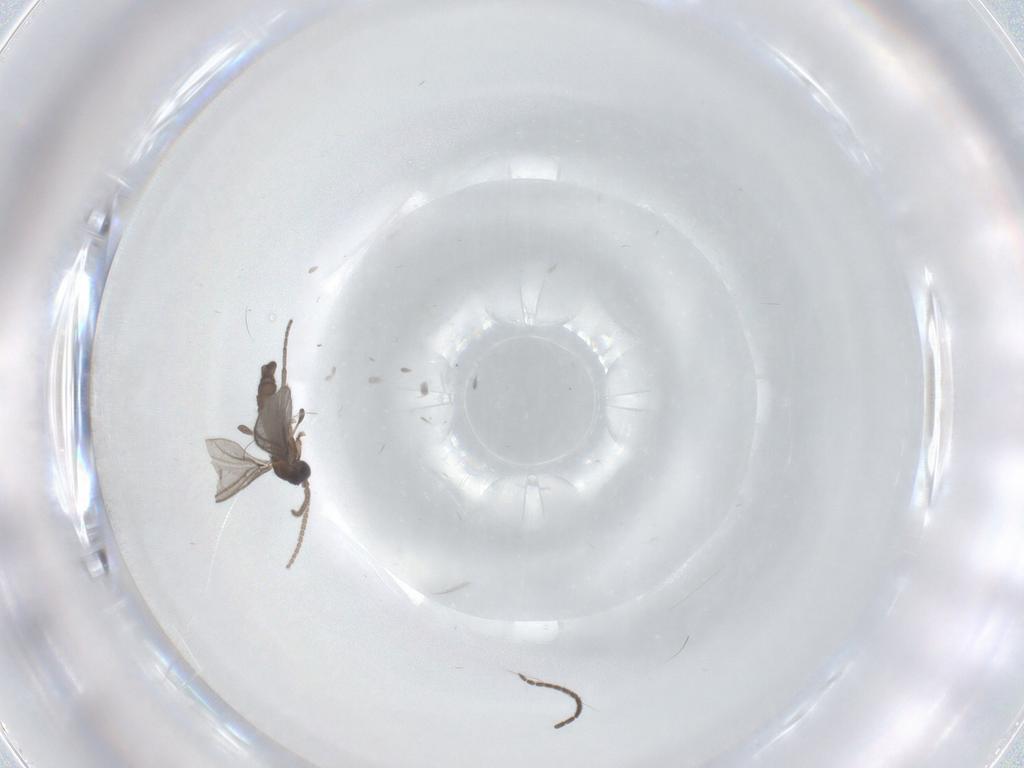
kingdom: Animalia
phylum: Arthropoda
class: Insecta
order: Diptera
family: Sciaridae
